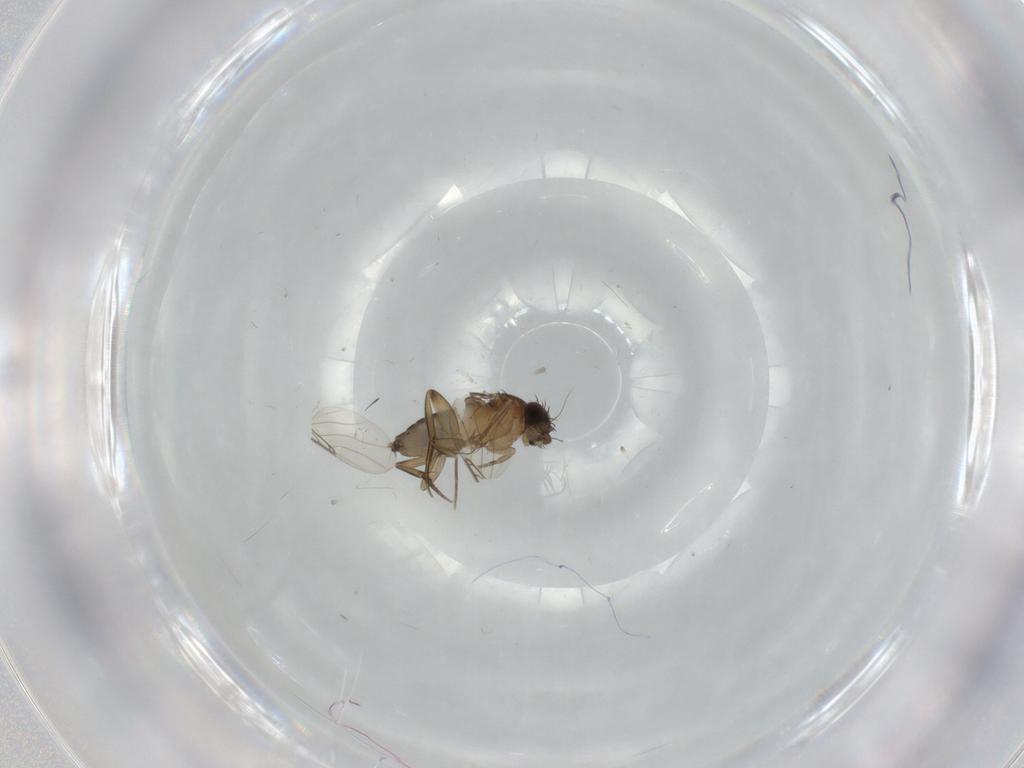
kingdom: Animalia
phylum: Arthropoda
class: Insecta
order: Diptera
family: Phoridae
